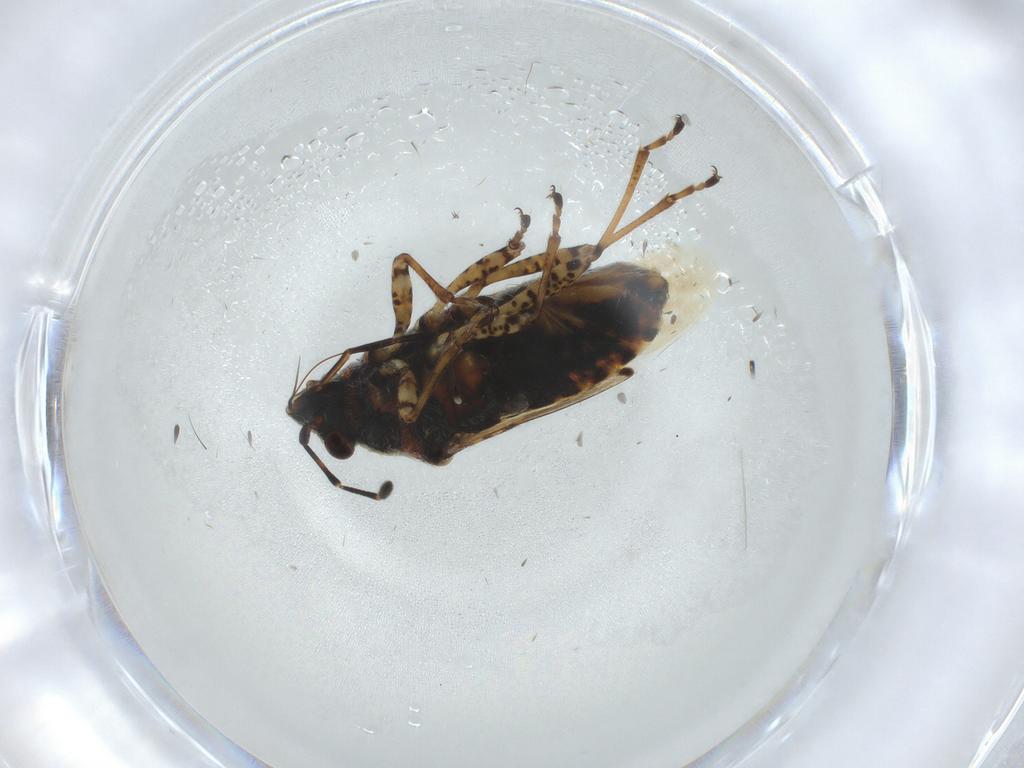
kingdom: Animalia
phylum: Arthropoda
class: Insecta
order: Hemiptera
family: Lygaeidae
